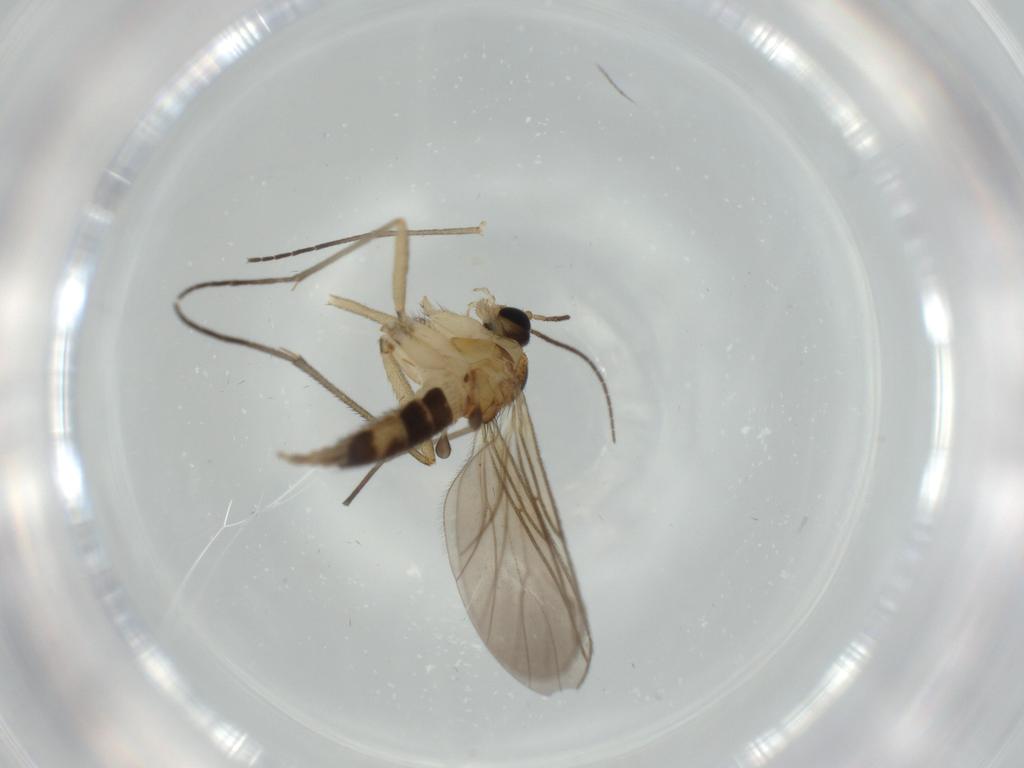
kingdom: Animalia
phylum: Arthropoda
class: Insecta
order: Diptera
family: Sciaridae
